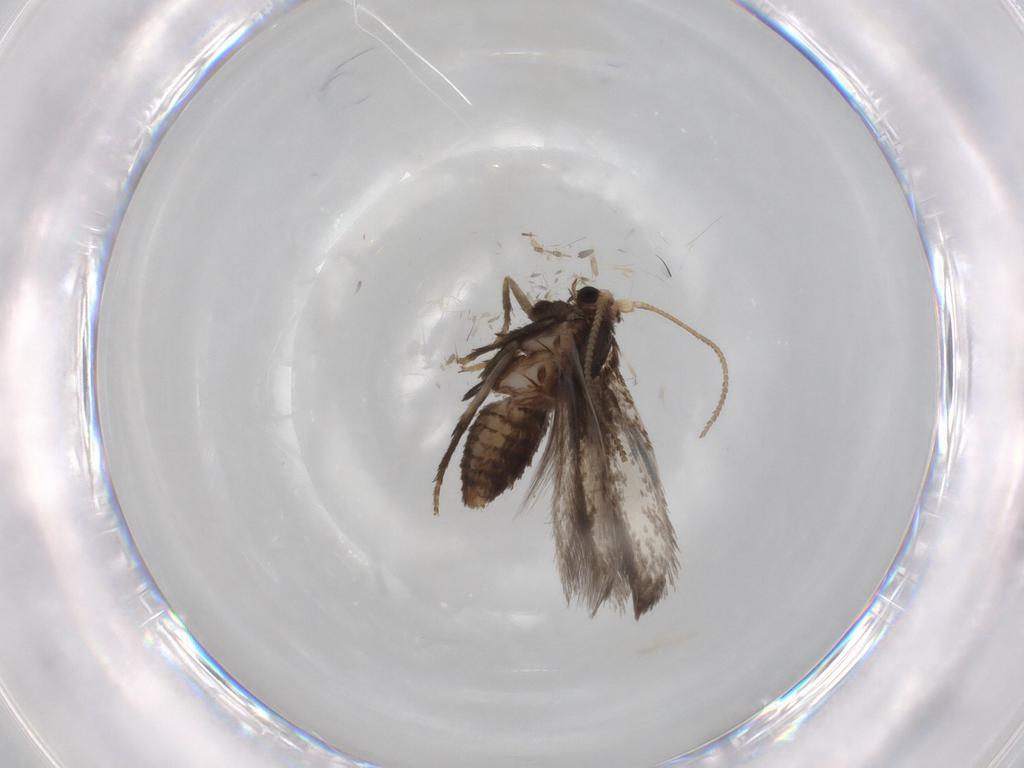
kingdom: Animalia
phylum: Arthropoda
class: Insecta
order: Lepidoptera
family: Nepticulidae
